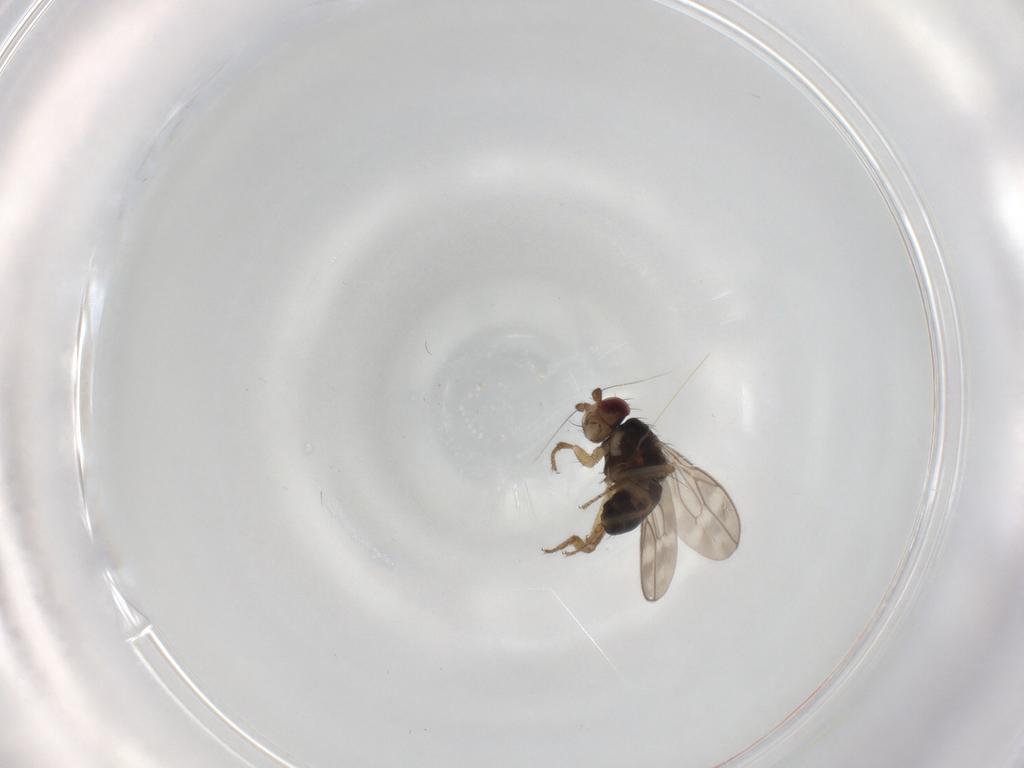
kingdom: Animalia
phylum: Arthropoda
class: Insecta
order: Diptera
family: Sphaeroceridae
